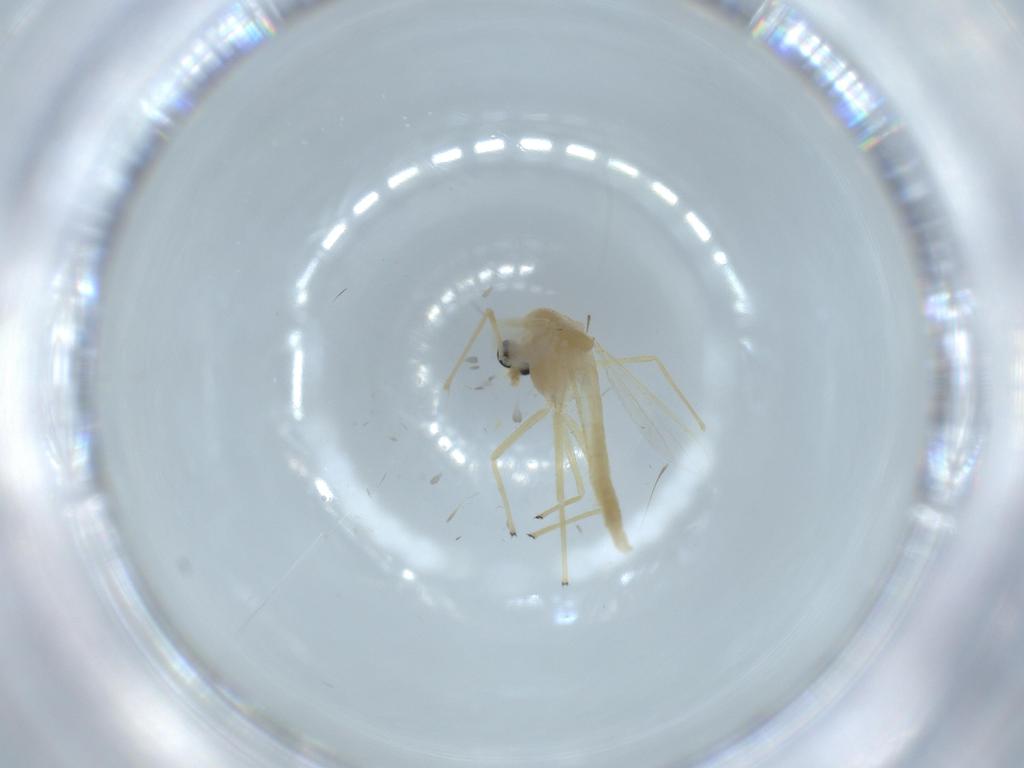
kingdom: Animalia
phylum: Arthropoda
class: Insecta
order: Diptera
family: Chironomidae
